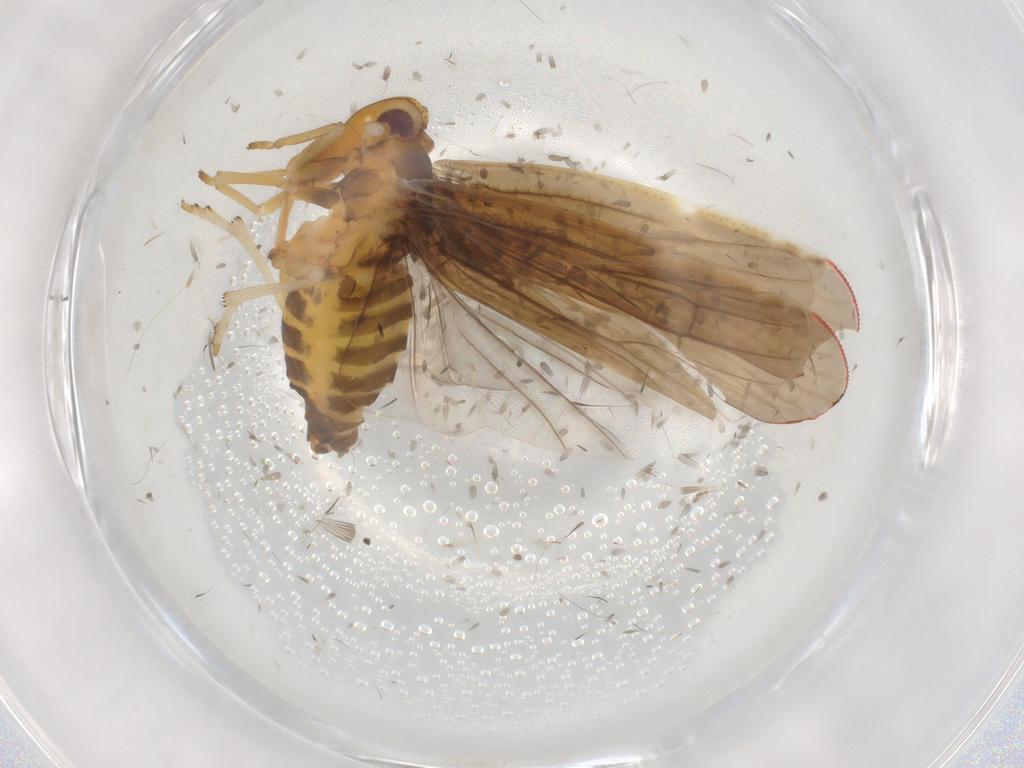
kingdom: Animalia
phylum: Arthropoda
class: Insecta
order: Hemiptera
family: Derbidae
